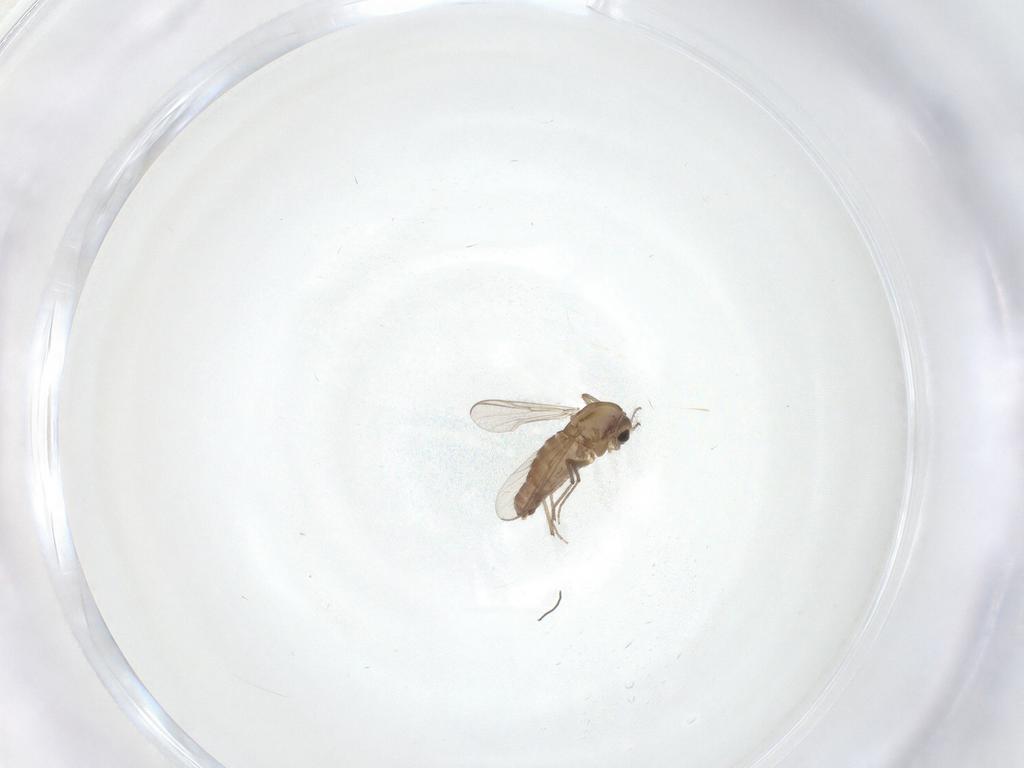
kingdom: Animalia
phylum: Arthropoda
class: Insecta
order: Diptera
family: Chironomidae
